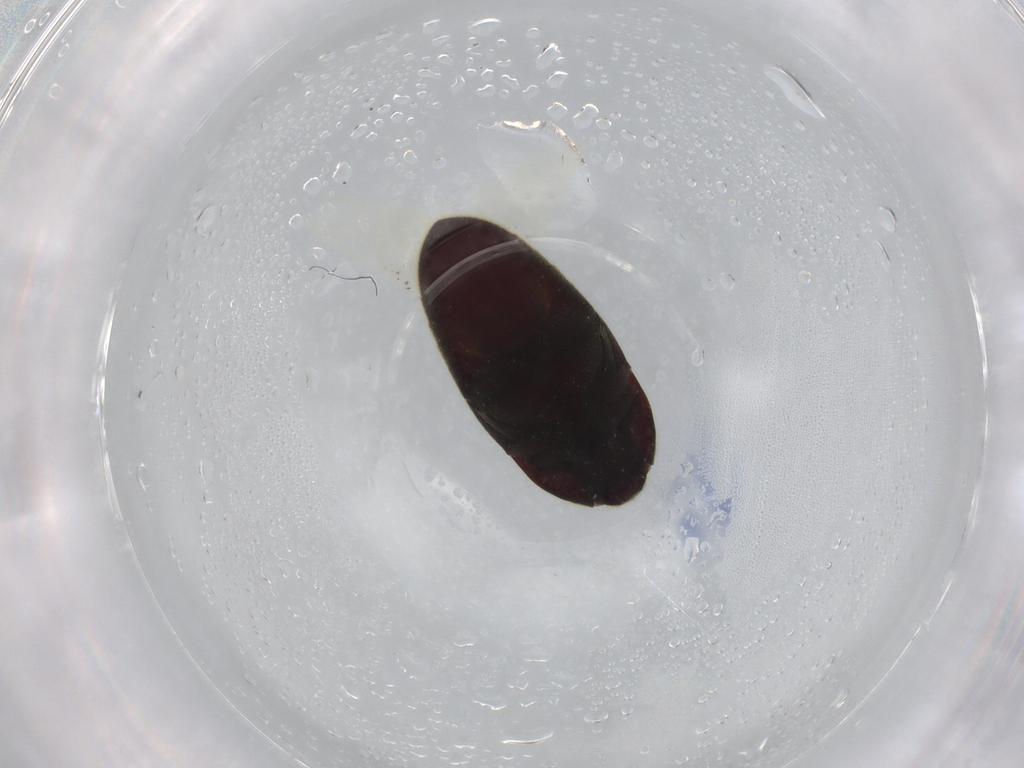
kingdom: Animalia
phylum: Arthropoda
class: Insecta
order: Coleoptera
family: Throscidae
